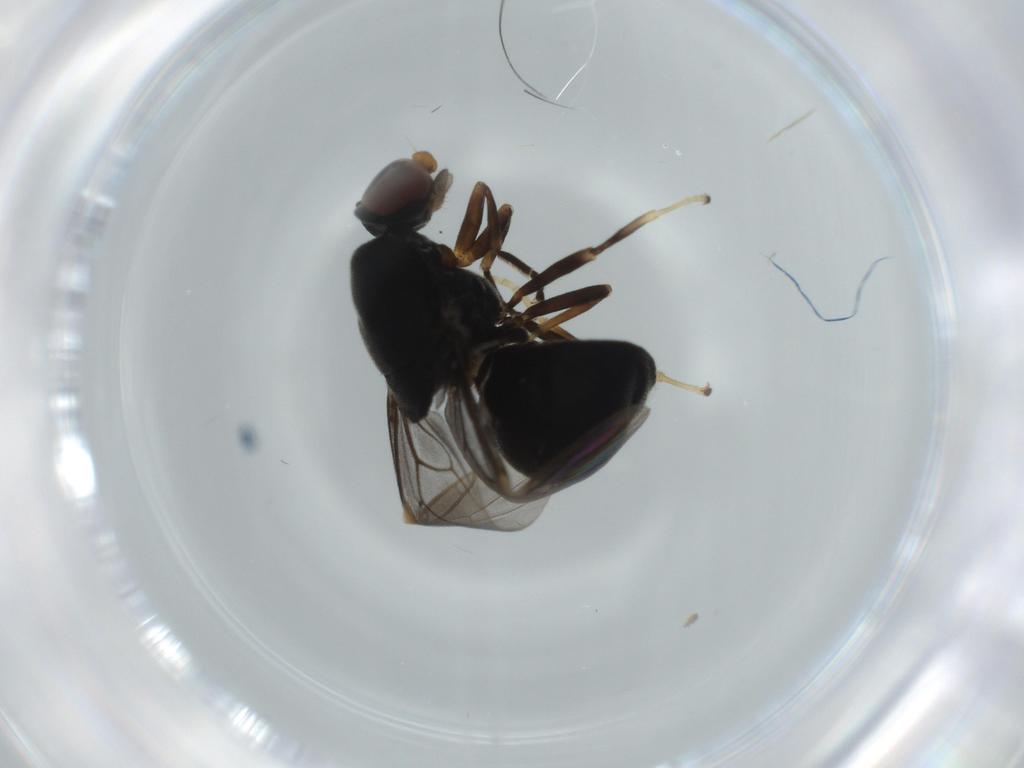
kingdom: Animalia
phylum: Arthropoda
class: Insecta
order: Diptera
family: Stratiomyidae
